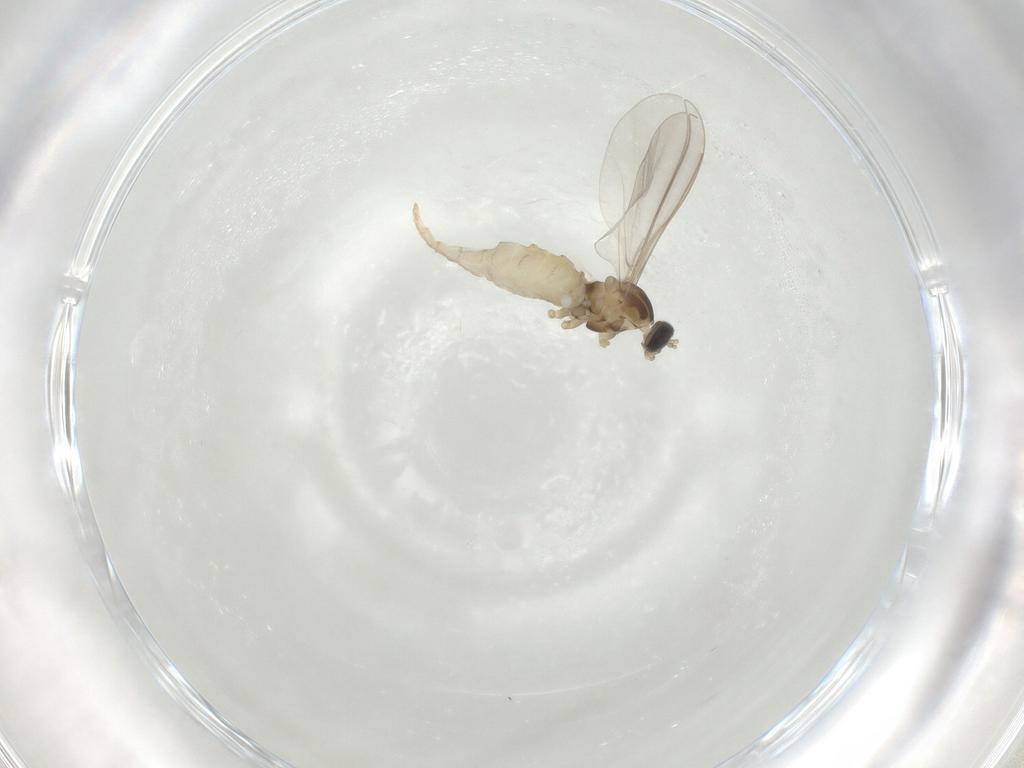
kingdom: Animalia
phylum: Arthropoda
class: Insecta
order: Diptera
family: Cecidomyiidae
